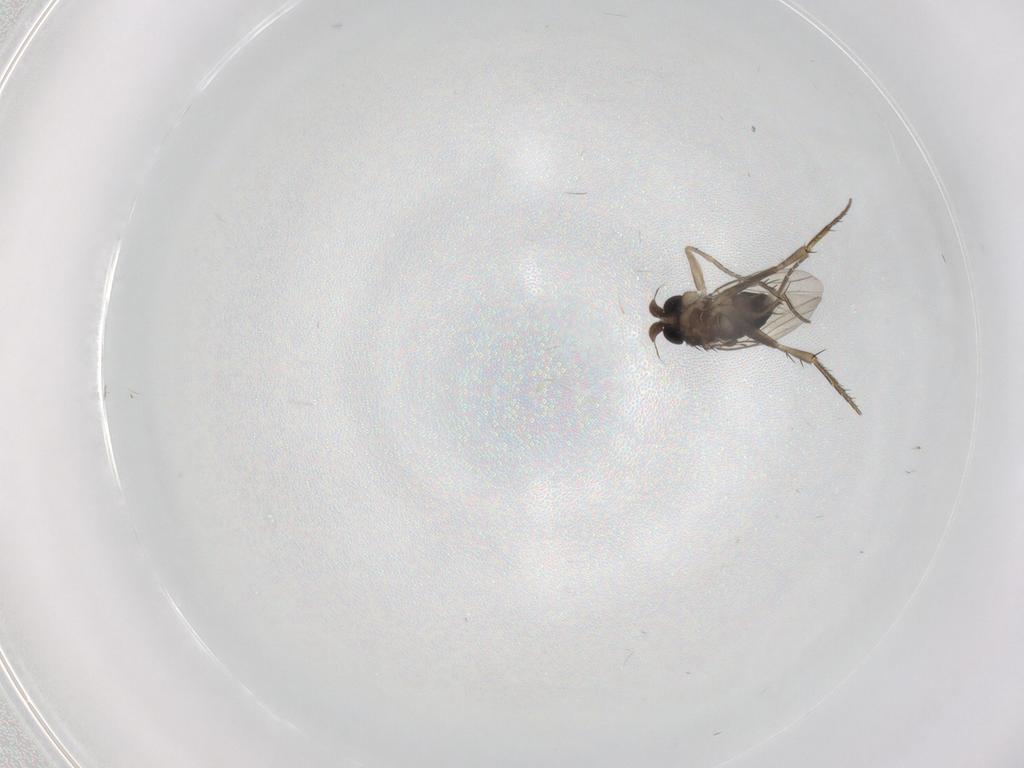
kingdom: Animalia
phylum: Arthropoda
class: Insecta
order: Diptera
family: Phoridae
